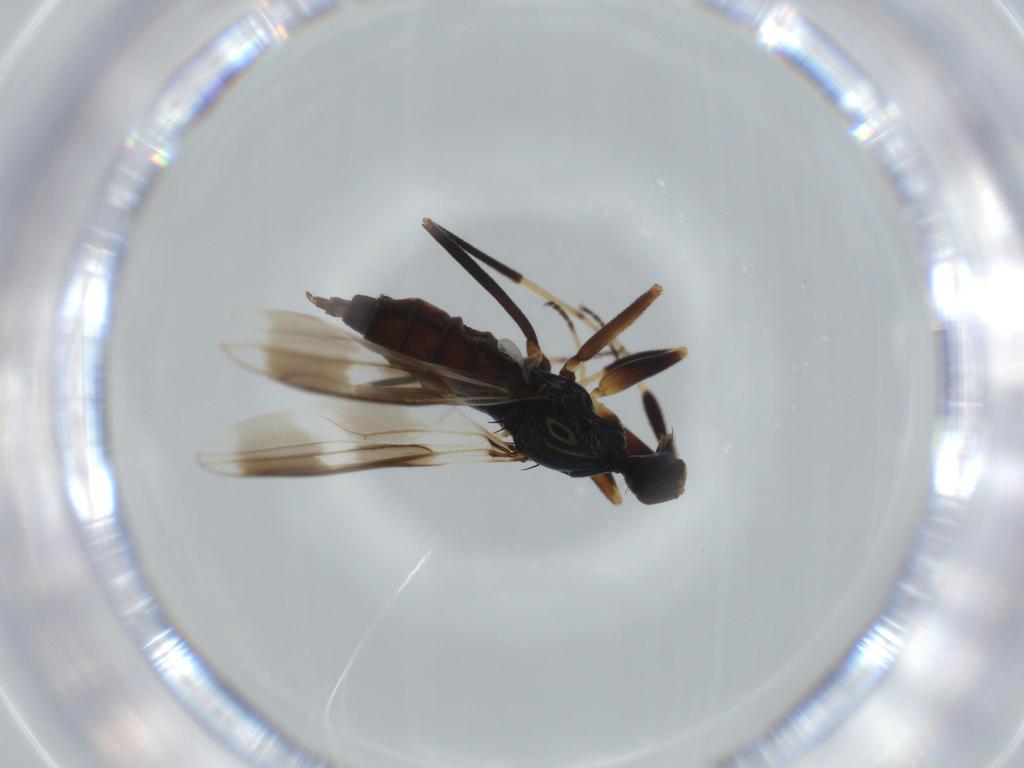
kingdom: Animalia
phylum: Arthropoda
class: Insecta
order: Diptera
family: Hybotidae
